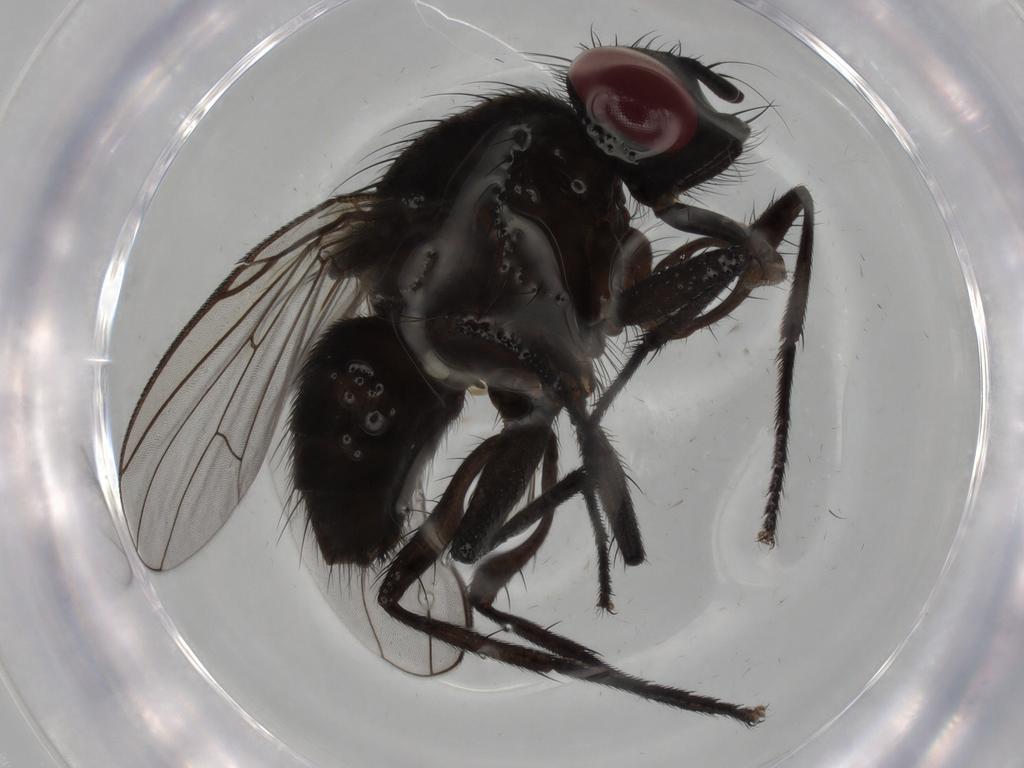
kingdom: Animalia
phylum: Arthropoda
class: Insecta
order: Diptera
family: Muscidae
